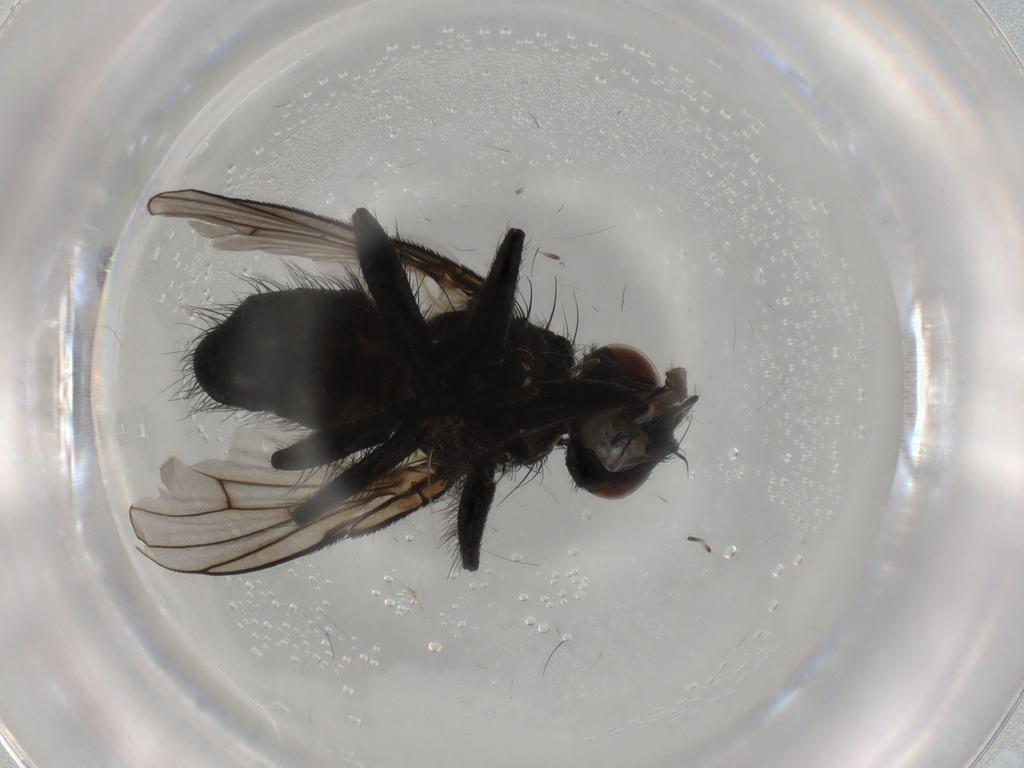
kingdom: Animalia
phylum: Arthropoda
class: Insecta
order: Diptera
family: Muscidae
